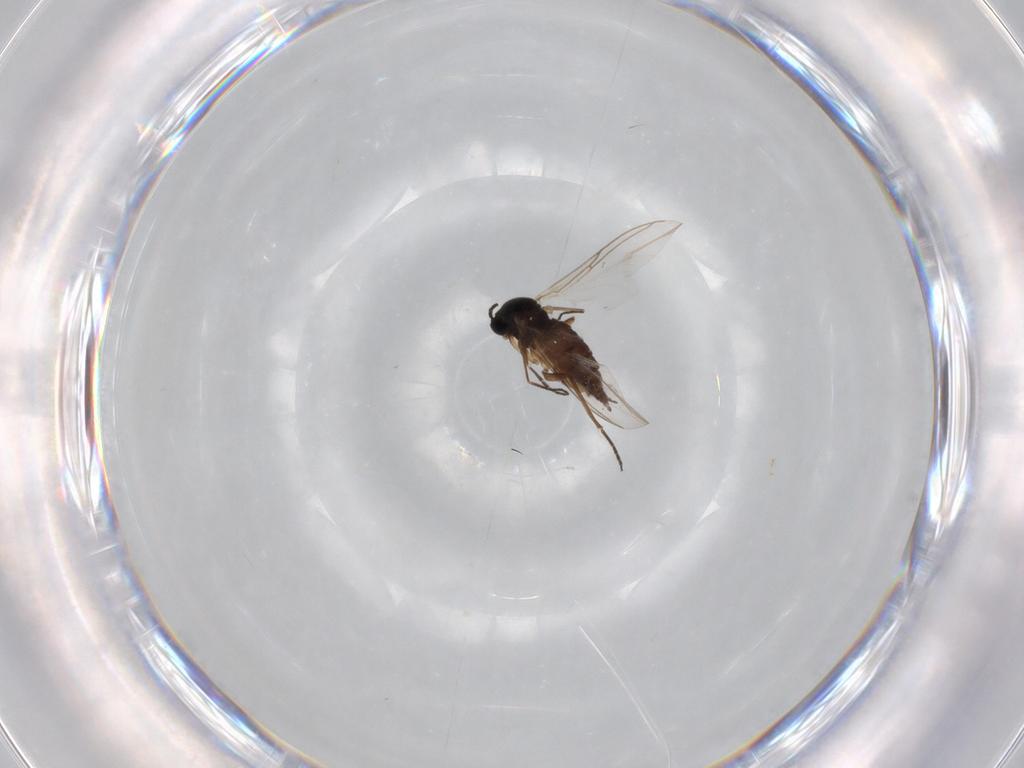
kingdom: Animalia
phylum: Arthropoda
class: Insecta
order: Diptera
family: Sciaridae
